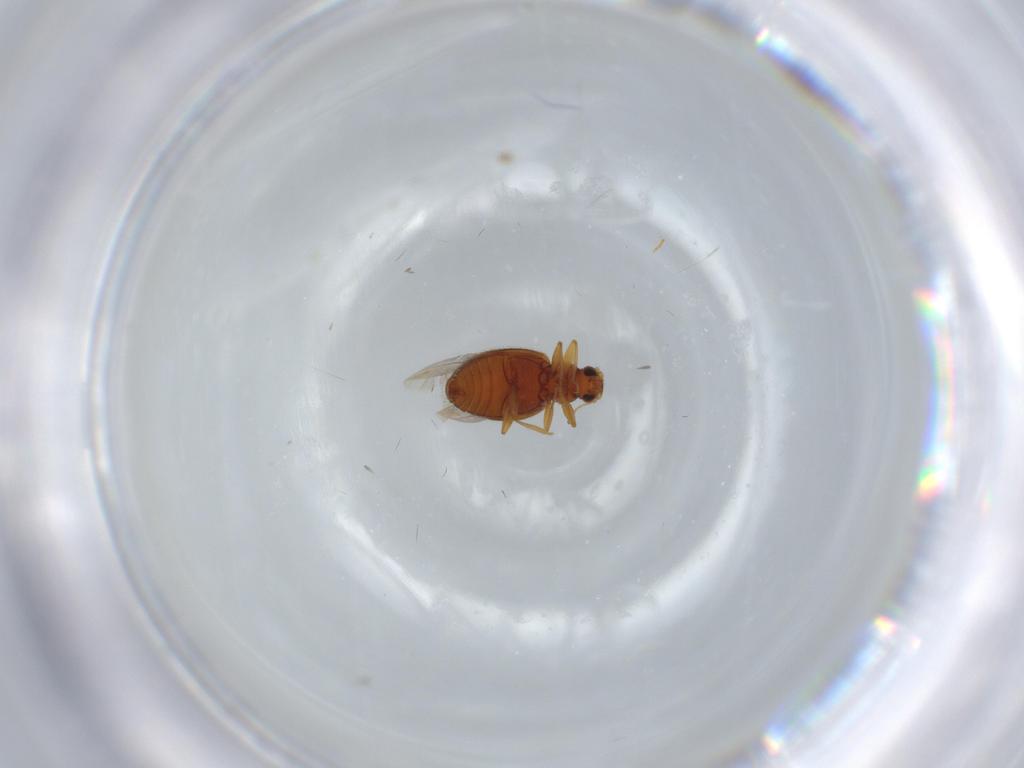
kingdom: Animalia
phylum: Arthropoda
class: Insecta
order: Coleoptera
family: Latridiidae
